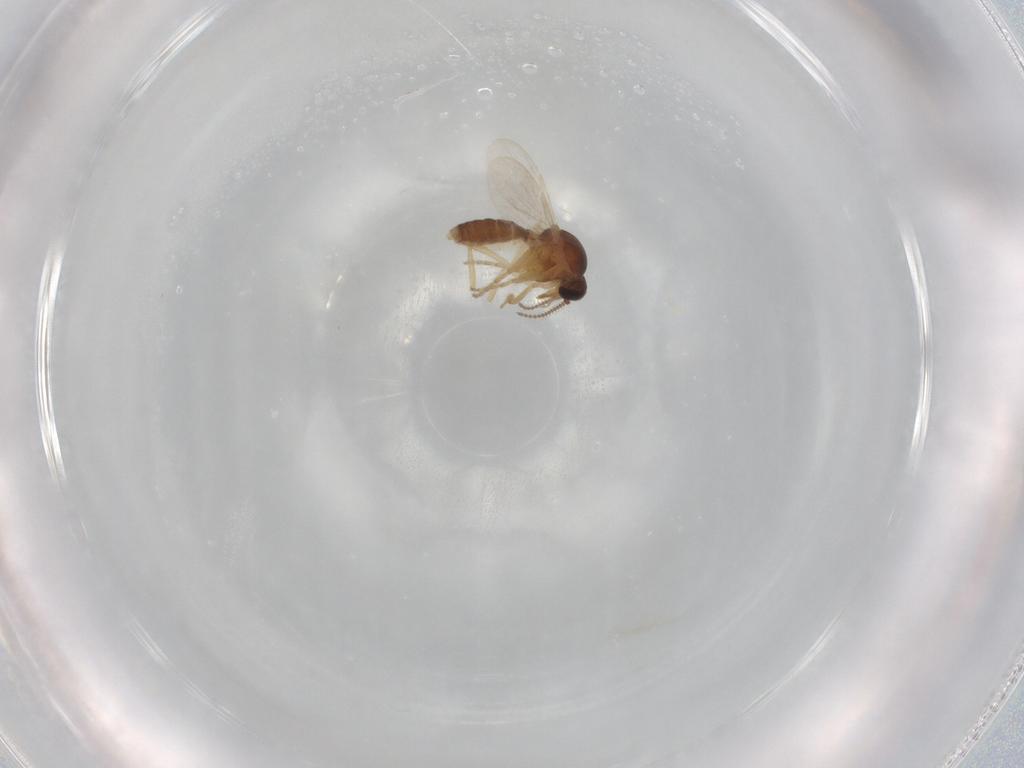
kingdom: Animalia
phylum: Arthropoda
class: Insecta
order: Diptera
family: Ceratopogonidae
